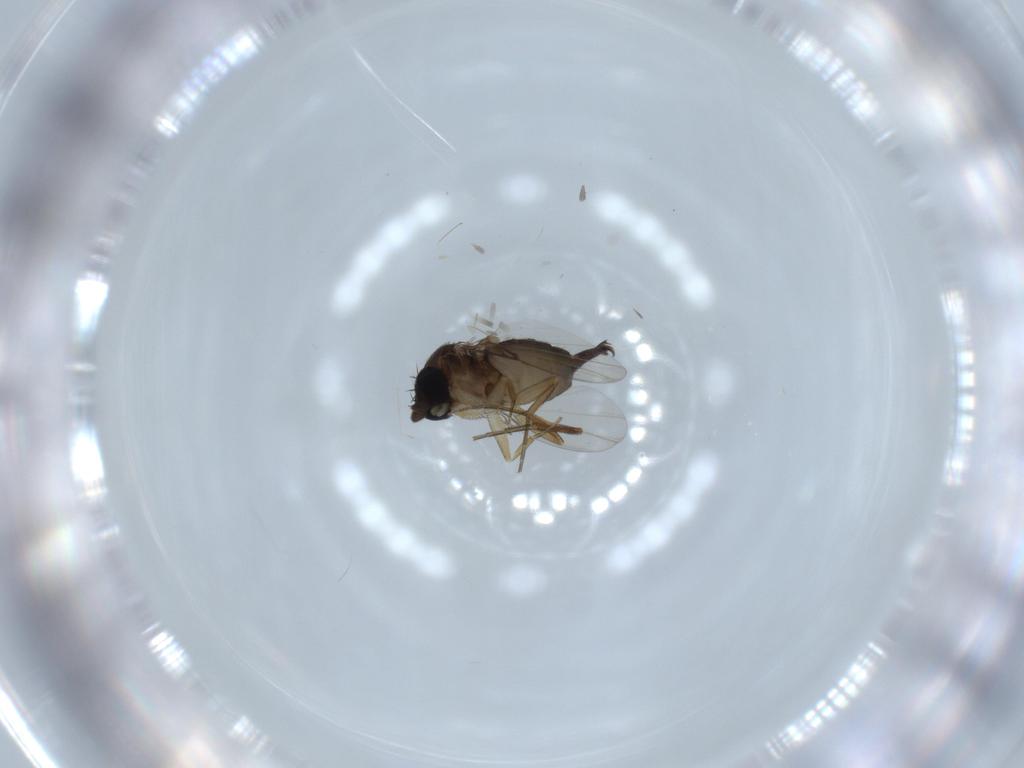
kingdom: Animalia
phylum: Arthropoda
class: Insecta
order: Diptera
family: Phoridae
